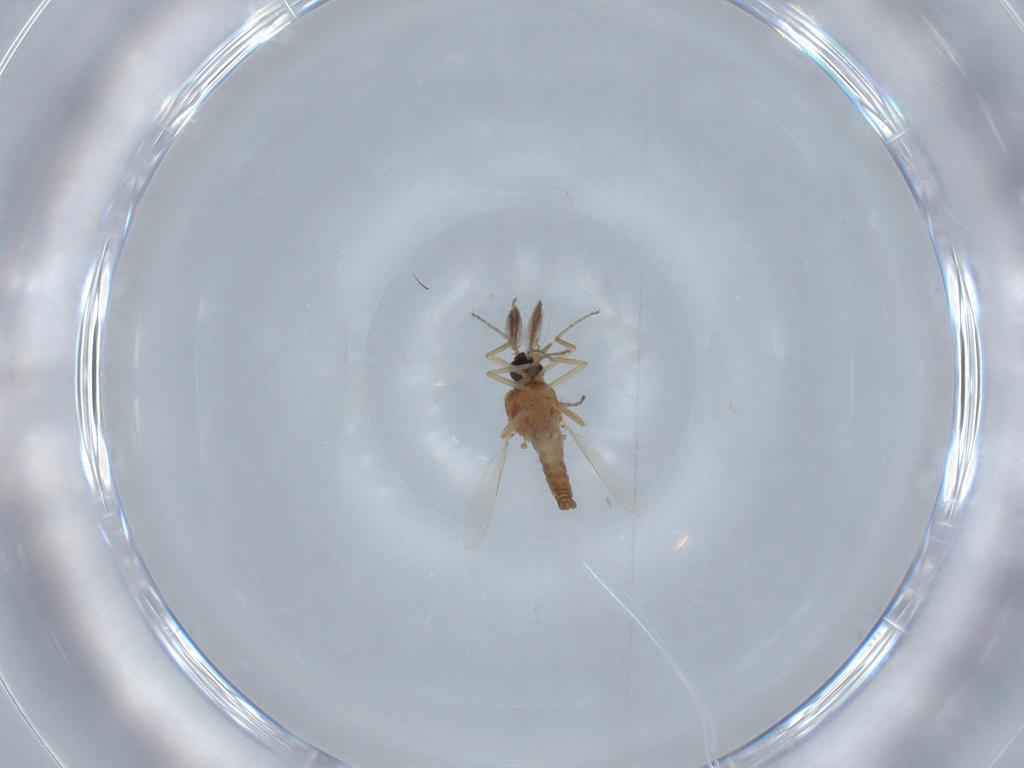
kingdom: Animalia
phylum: Arthropoda
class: Insecta
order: Diptera
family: Ceratopogonidae
